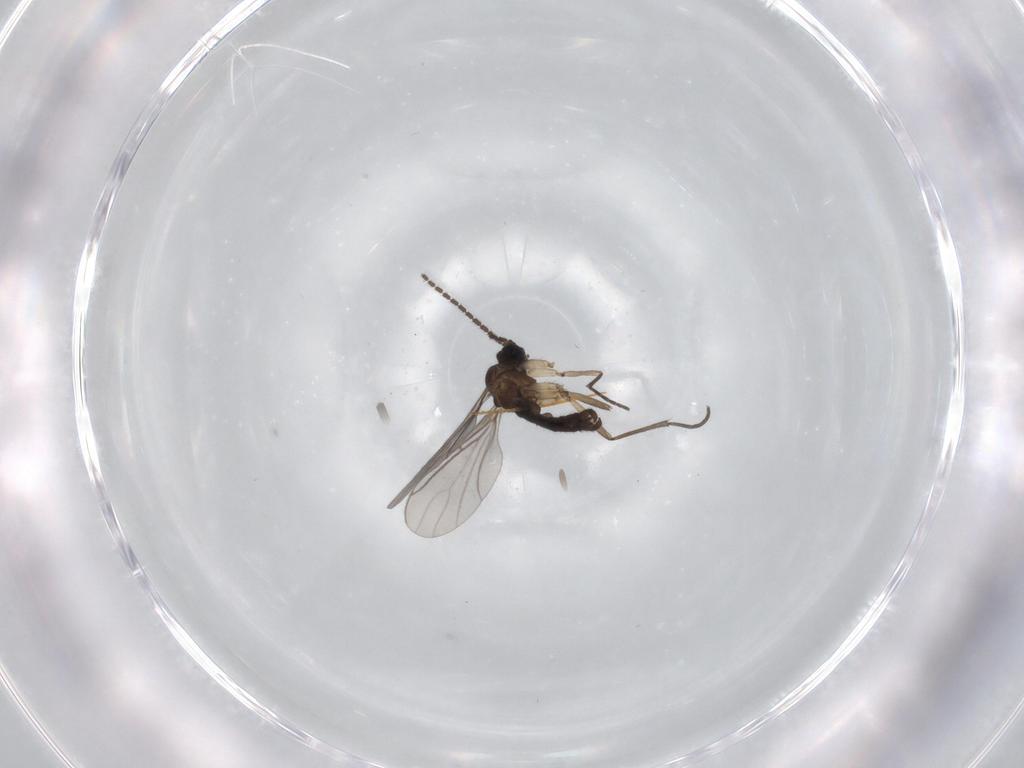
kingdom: Animalia
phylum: Arthropoda
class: Insecta
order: Diptera
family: Sciaridae
